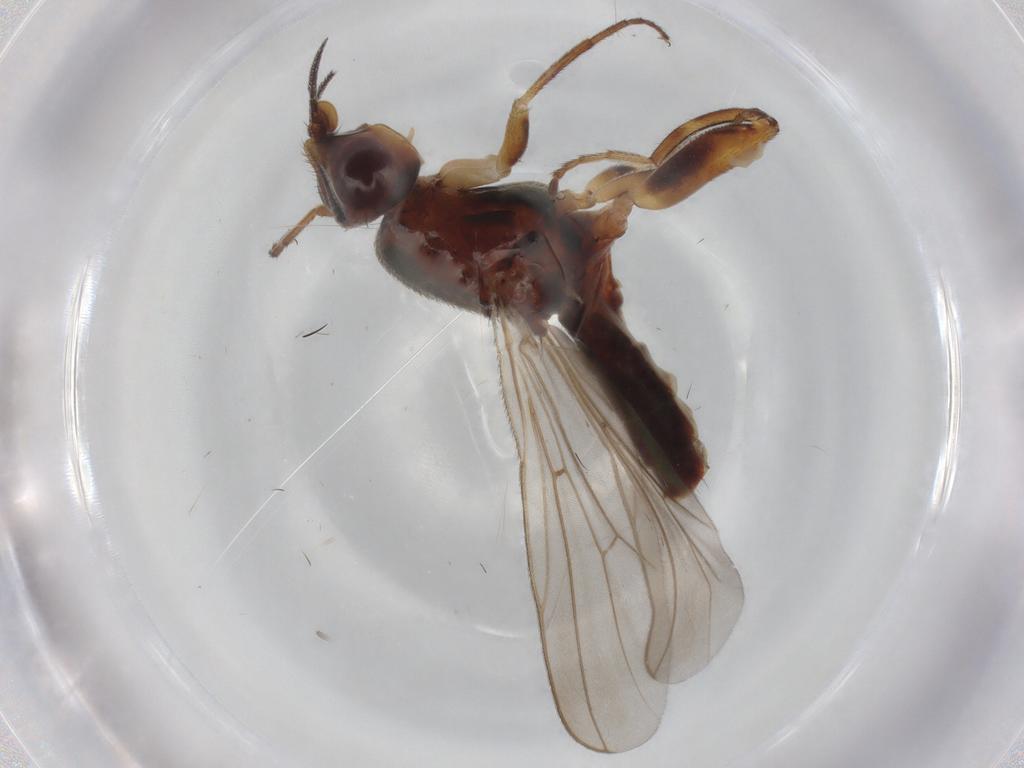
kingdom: Animalia
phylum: Arthropoda
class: Insecta
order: Diptera
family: Chloropidae
